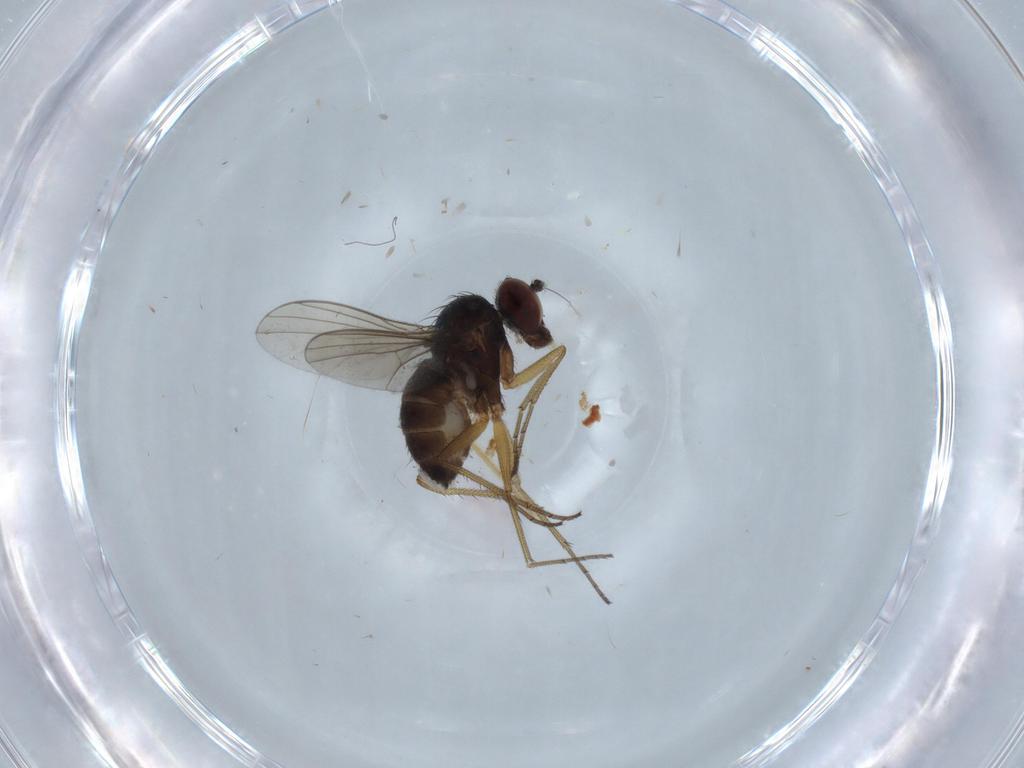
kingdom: Animalia
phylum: Arthropoda
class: Insecta
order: Diptera
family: Dolichopodidae
